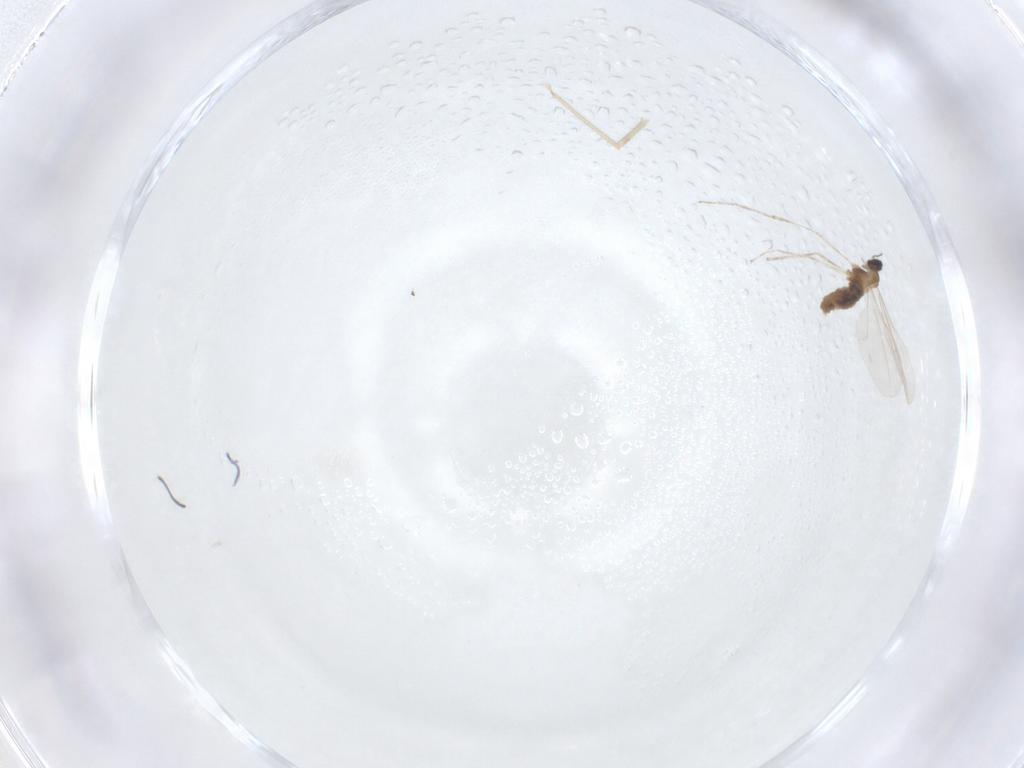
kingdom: Animalia
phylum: Arthropoda
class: Insecta
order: Diptera
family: Cecidomyiidae
